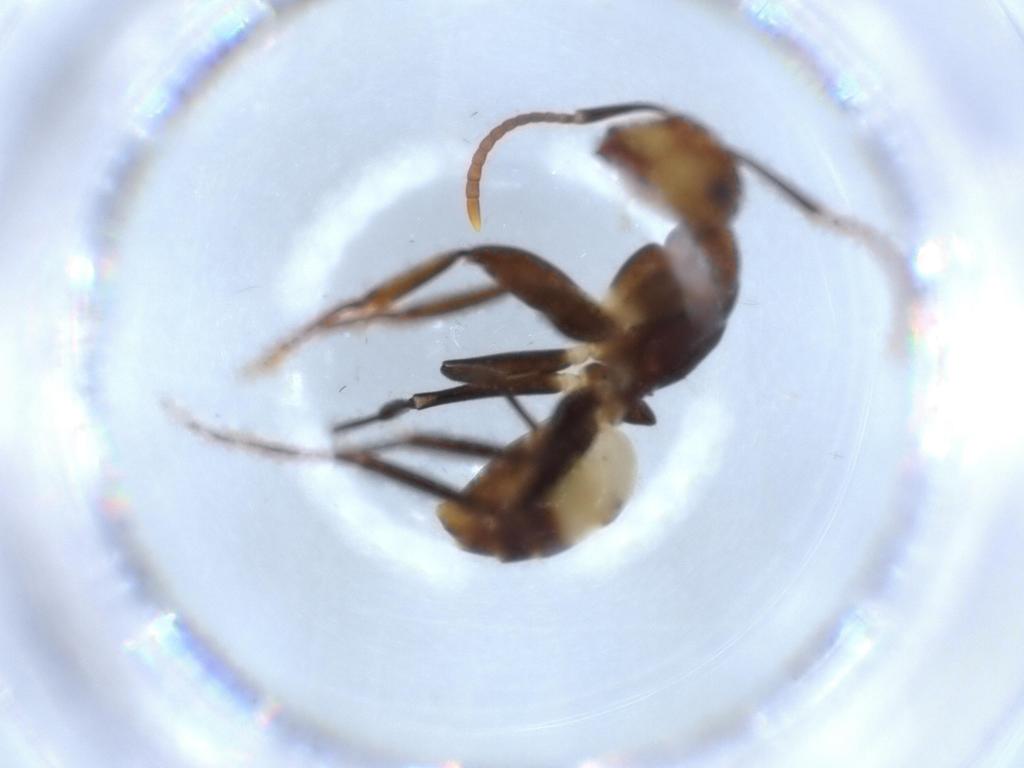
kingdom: Animalia
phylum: Arthropoda
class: Insecta
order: Hymenoptera
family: Formicidae
